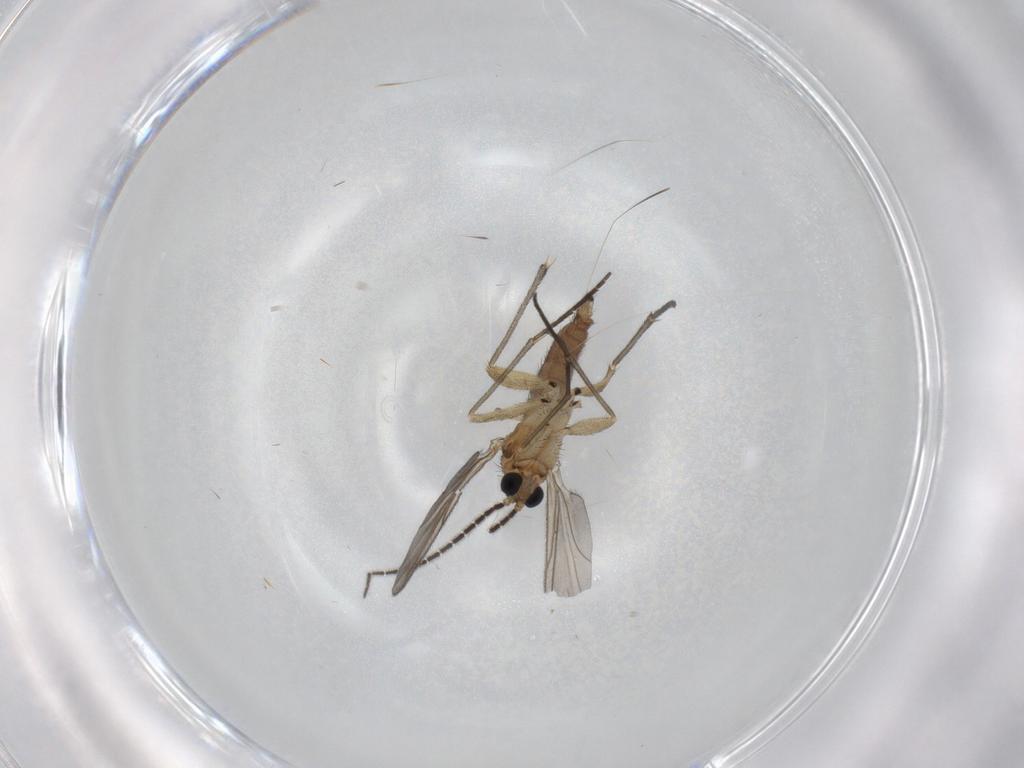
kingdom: Animalia
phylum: Arthropoda
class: Insecta
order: Diptera
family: Sciaridae
